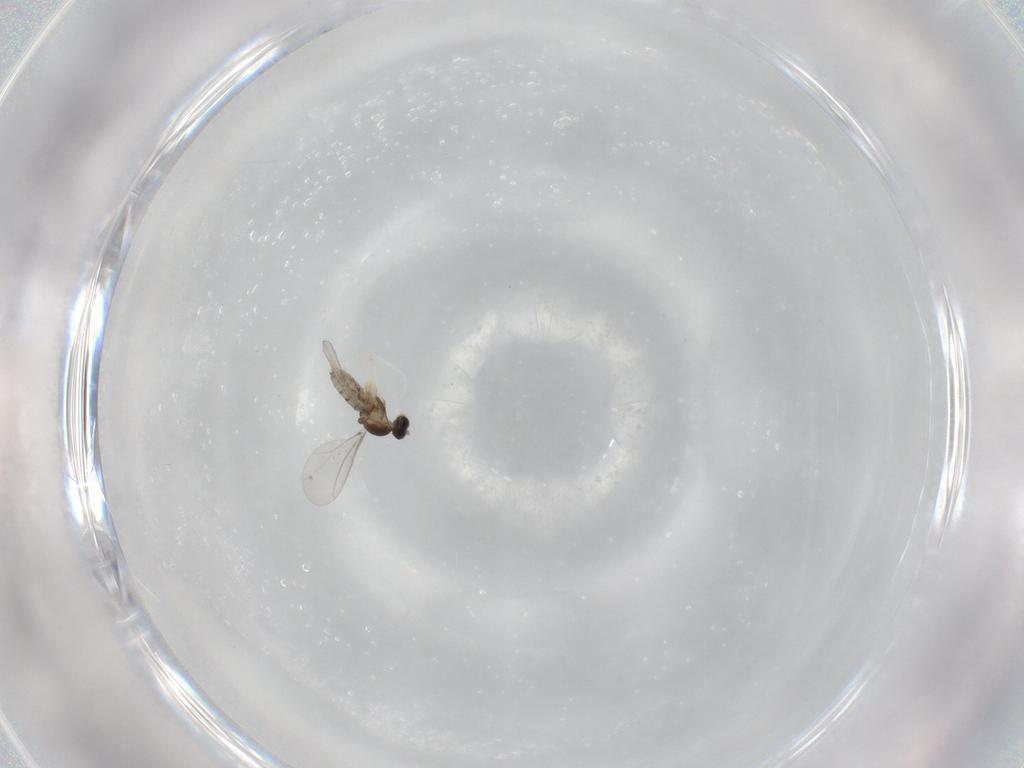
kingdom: Animalia
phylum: Arthropoda
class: Insecta
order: Diptera
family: Cecidomyiidae
